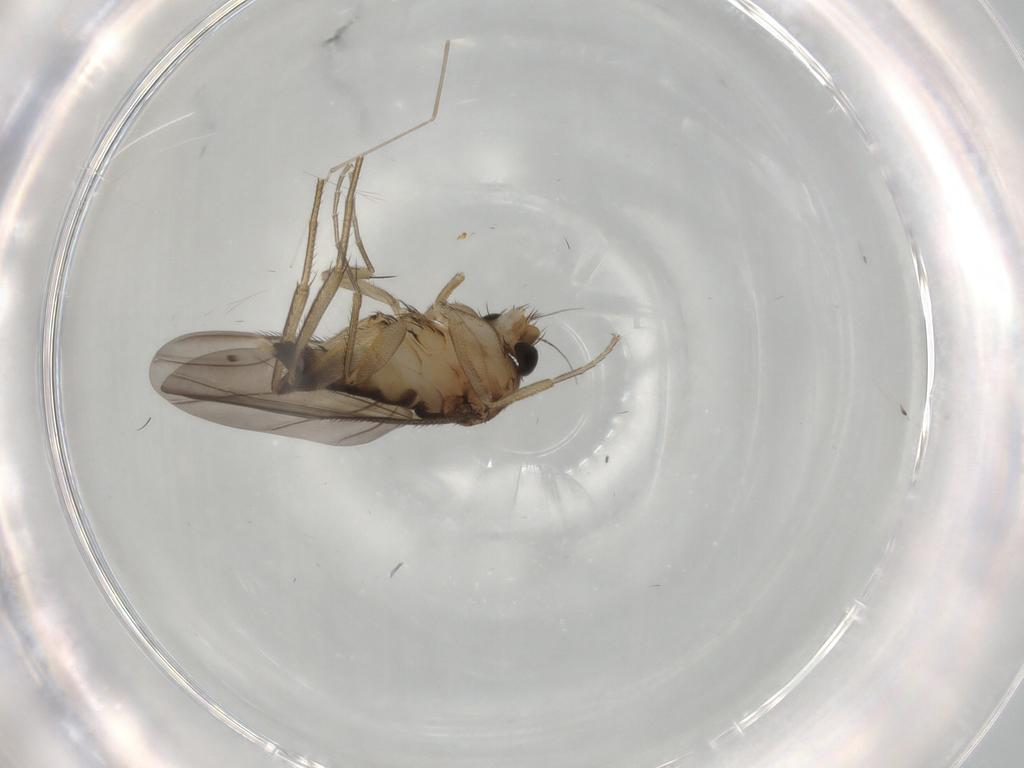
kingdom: Animalia
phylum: Arthropoda
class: Insecta
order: Diptera
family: Phoridae
